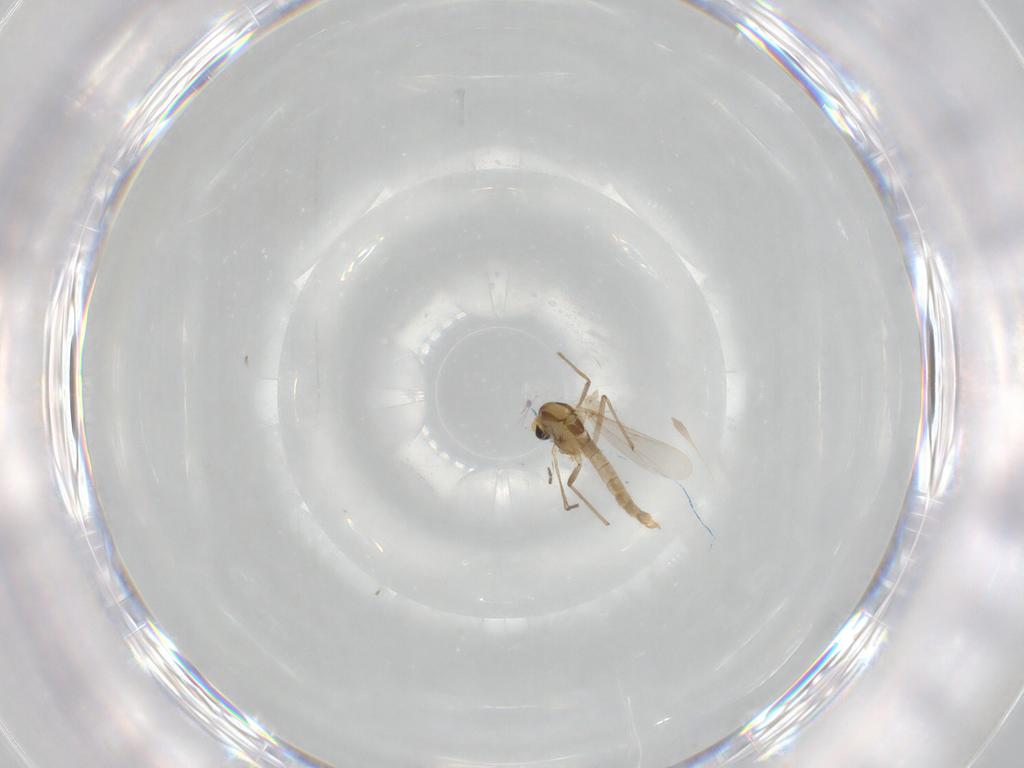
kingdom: Animalia
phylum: Arthropoda
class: Insecta
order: Diptera
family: Chironomidae
